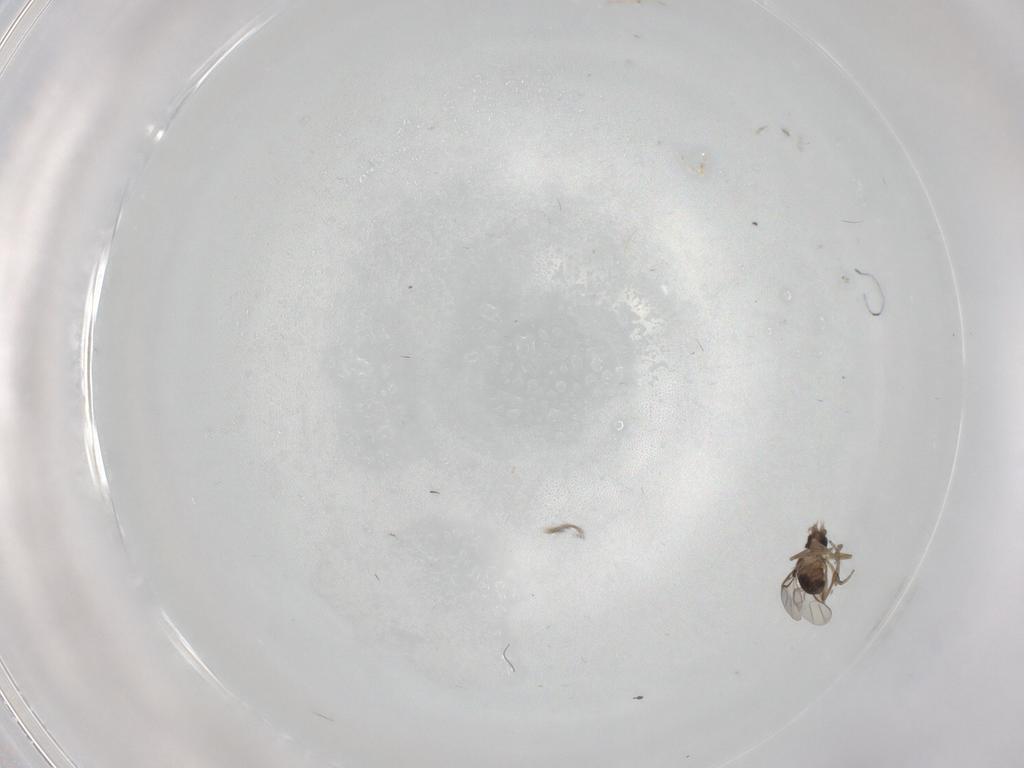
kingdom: Animalia
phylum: Arthropoda
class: Insecta
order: Diptera
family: Phoridae
